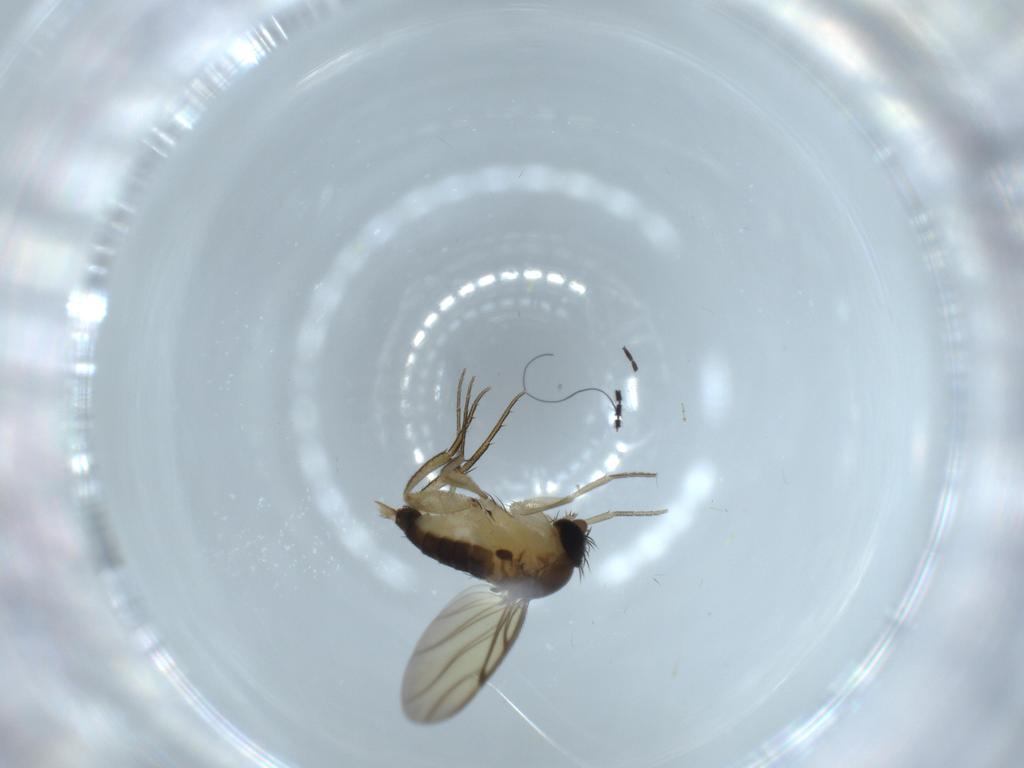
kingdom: Animalia
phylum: Arthropoda
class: Insecta
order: Diptera
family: Sciaridae
